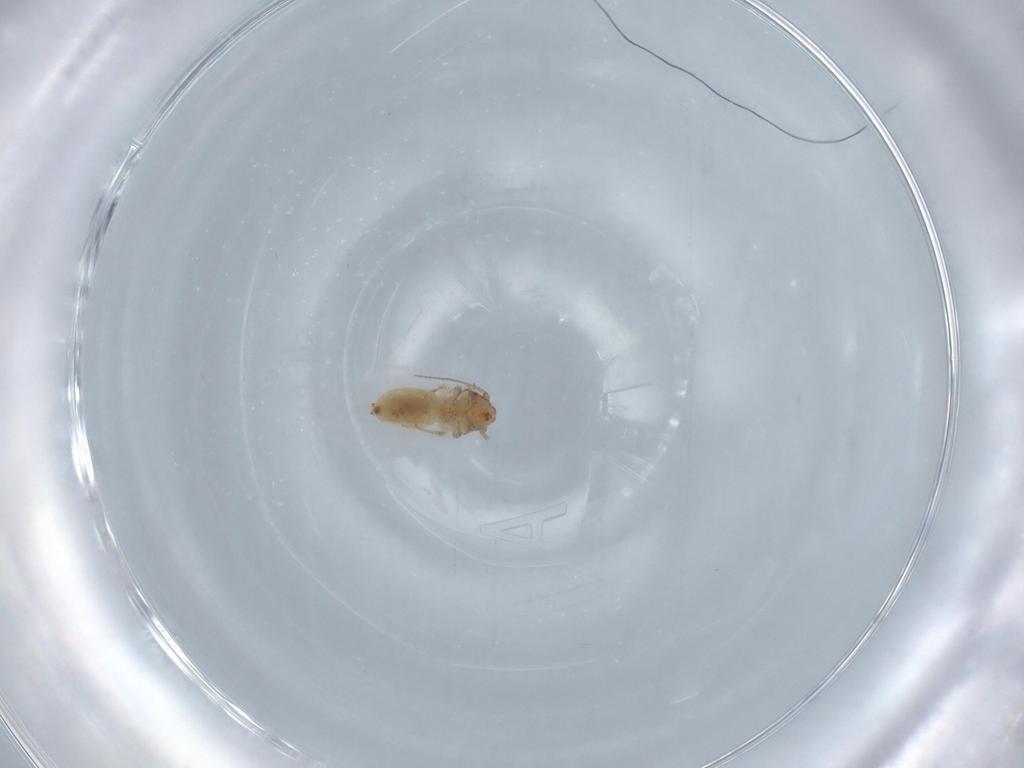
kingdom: Animalia
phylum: Arthropoda
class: Insecta
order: Psocodea
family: Lepidopsocidae
